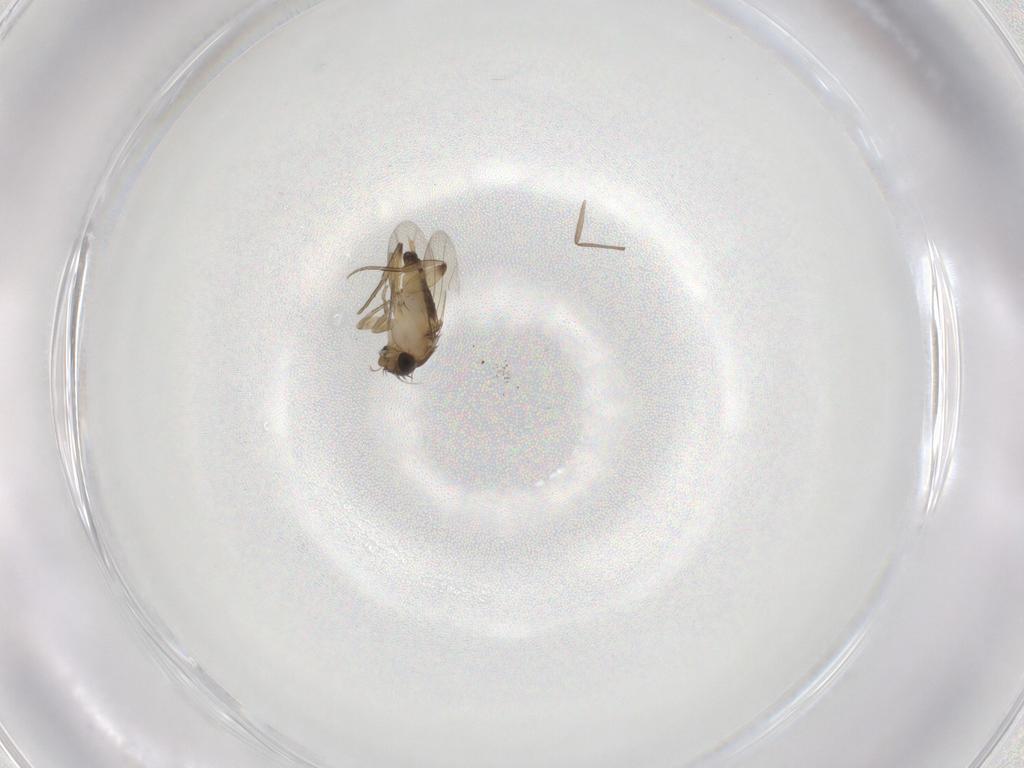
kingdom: Animalia
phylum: Arthropoda
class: Insecta
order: Diptera
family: Phoridae
